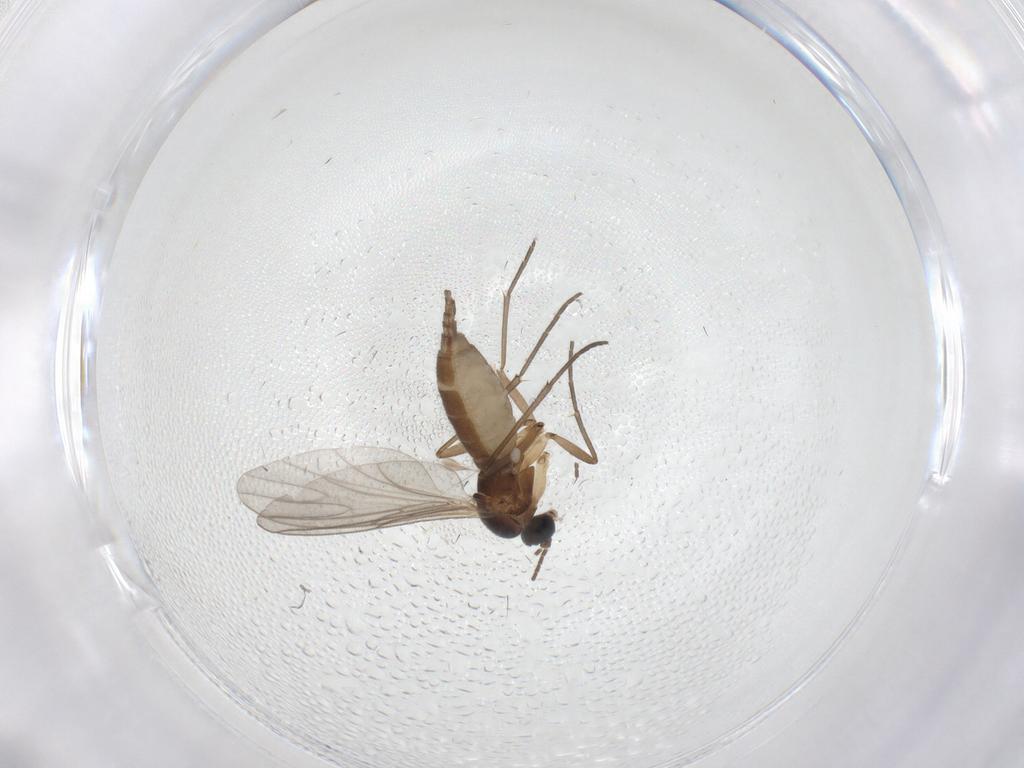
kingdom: Animalia
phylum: Arthropoda
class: Insecta
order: Diptera
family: Sciaridae
